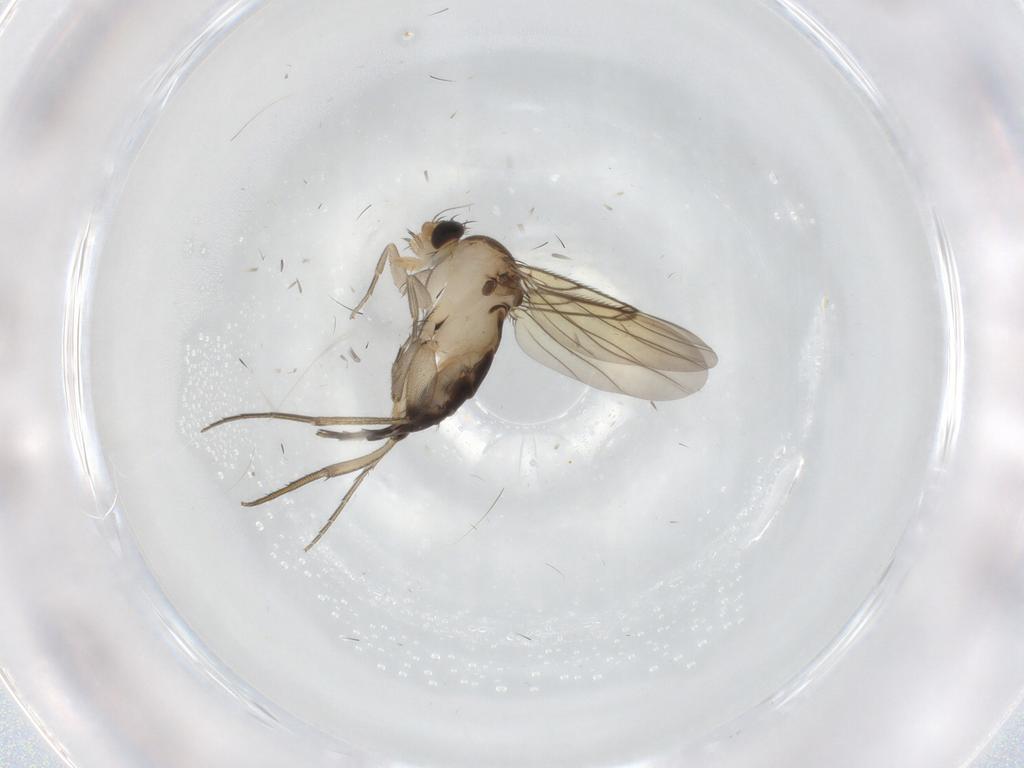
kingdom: Animalia
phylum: Arthropoda
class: Insecta
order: Diptera
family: Phoridae
